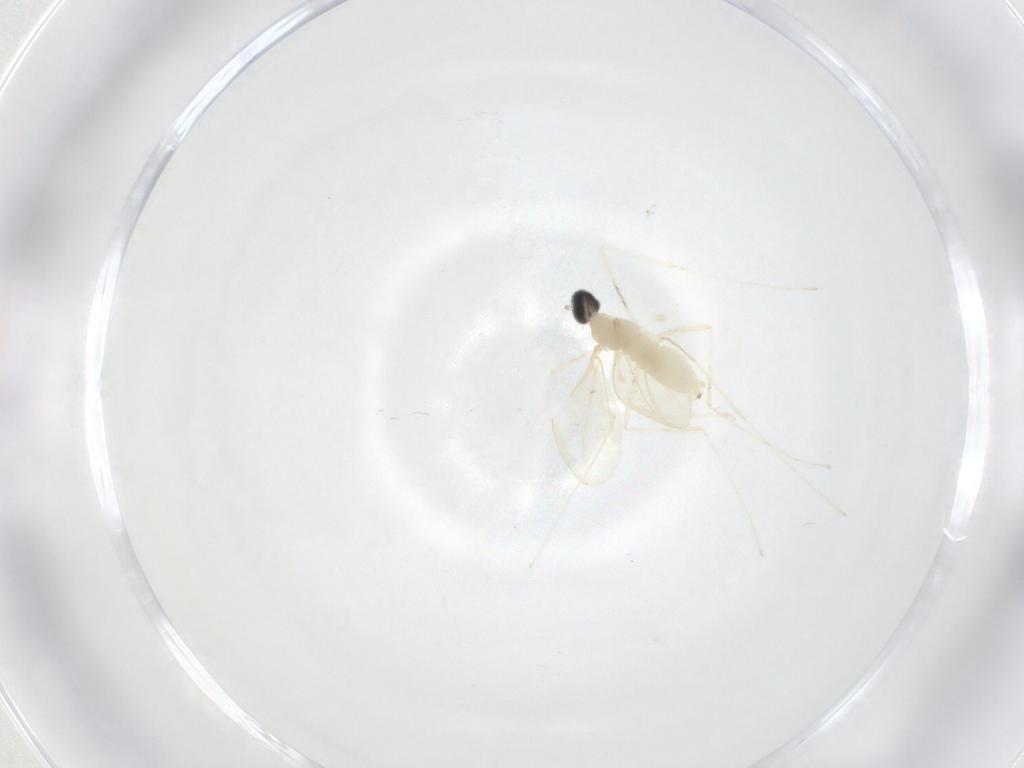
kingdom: Animalia
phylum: Arthropoda
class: Insecta
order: Diptera
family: Cecidomyiidae
